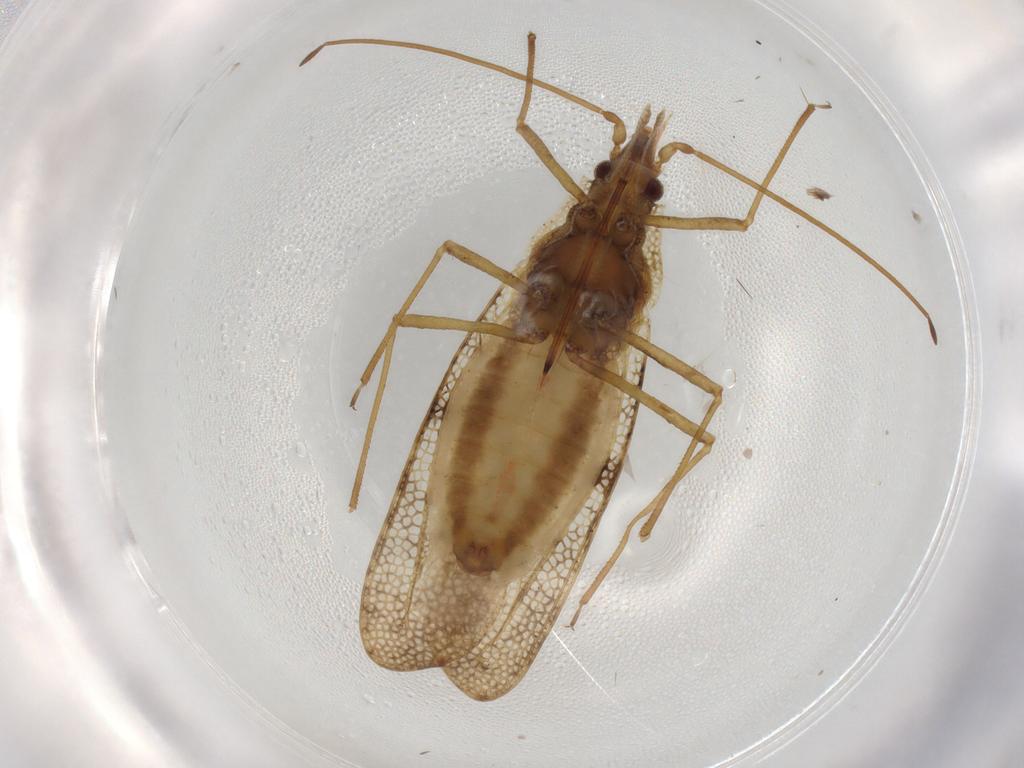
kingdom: Animalia
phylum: Arthropoda
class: Insecta
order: Hemiptera
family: Tingidae
